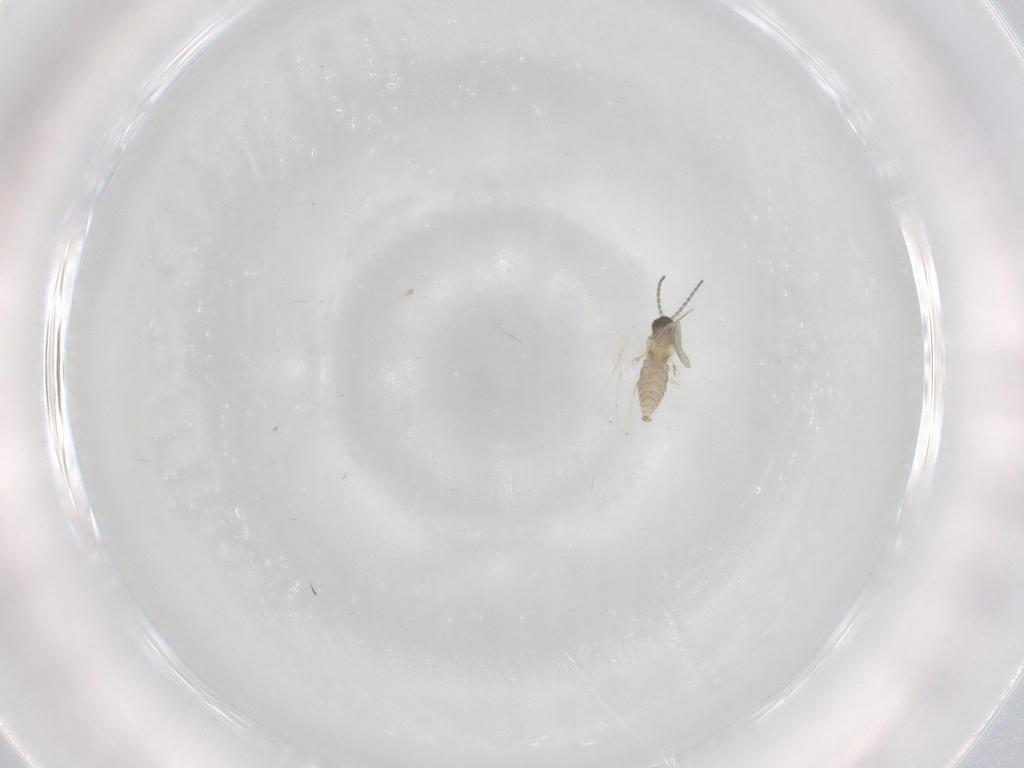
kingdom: Animalia
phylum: Arthropoda
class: Insecta
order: Diptera
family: Cecidomyiidae
